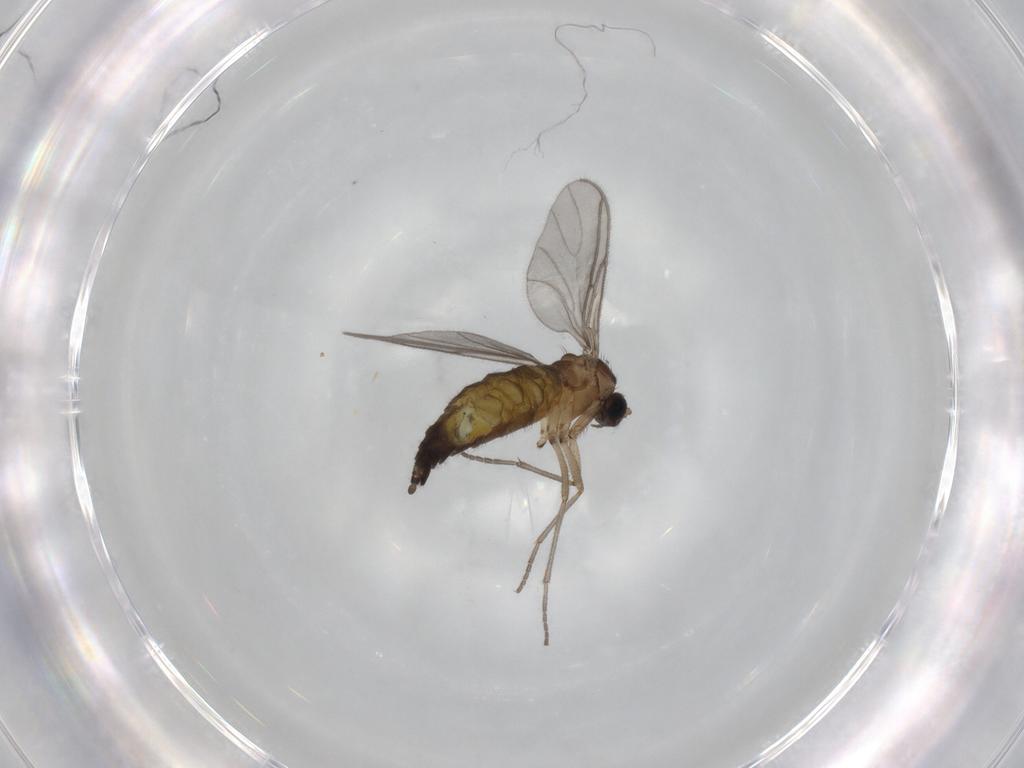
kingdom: Animalia
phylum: Arthropoda
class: Insecta
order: Diptera
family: Sciaridae
